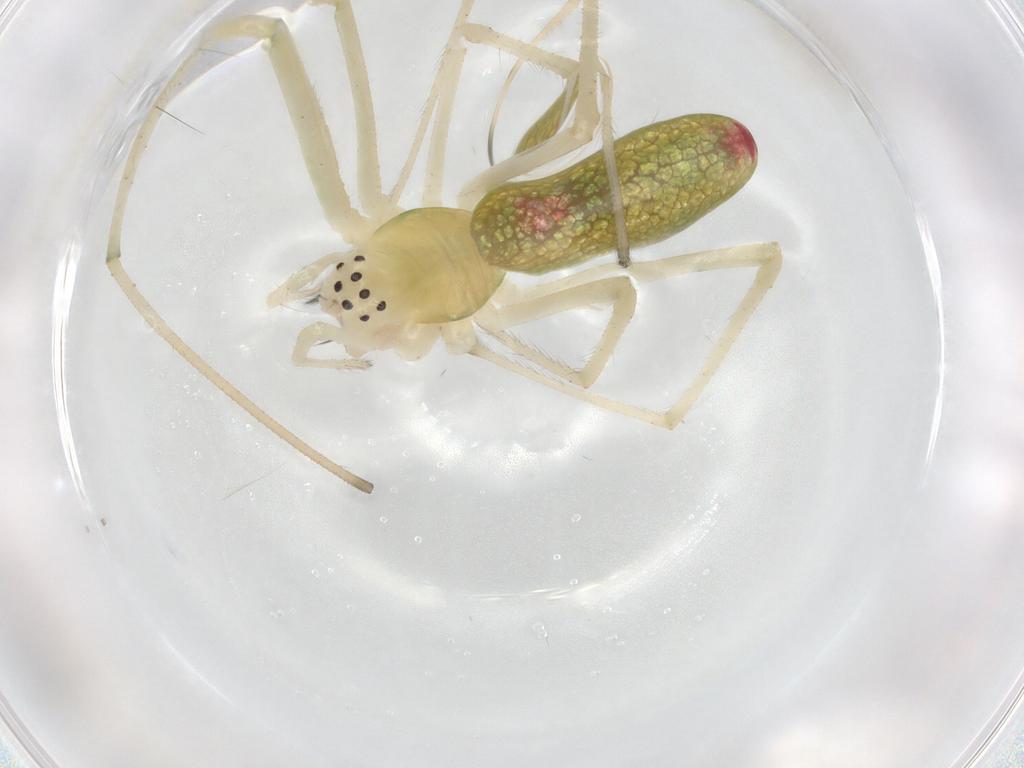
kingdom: Animalia
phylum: Arthropoda
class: Arachnida
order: Araneae
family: Tetragnathidae
